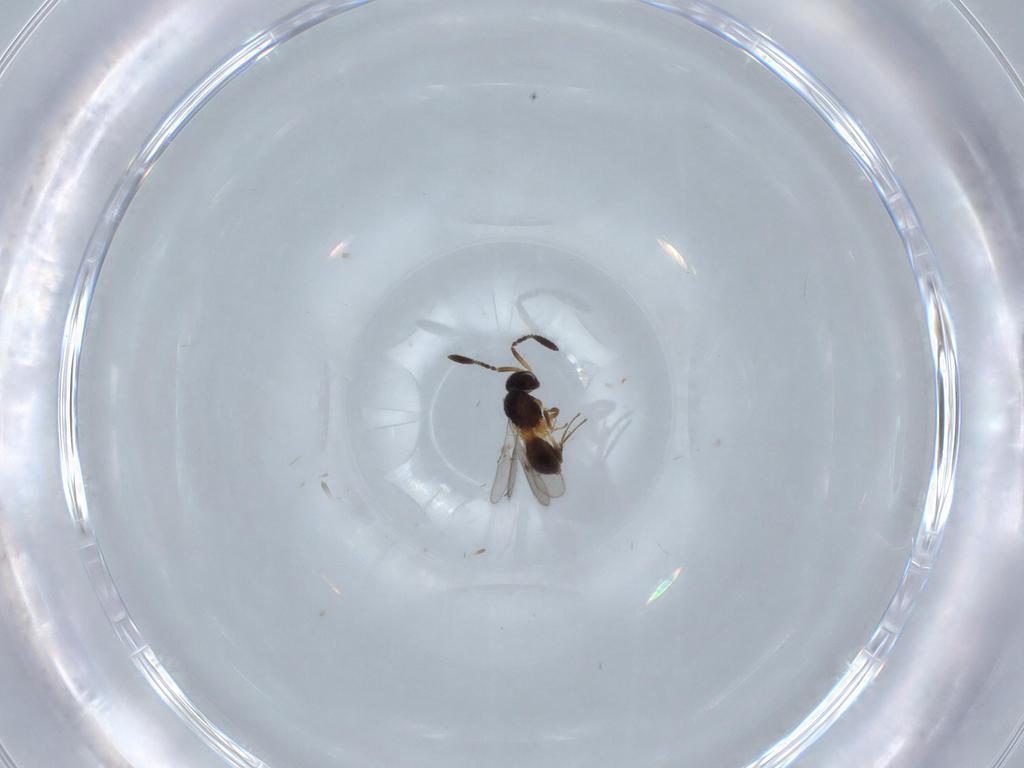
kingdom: Animalia
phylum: Arthropoda
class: Insecta
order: Hymenoptera
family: Scelionidae
